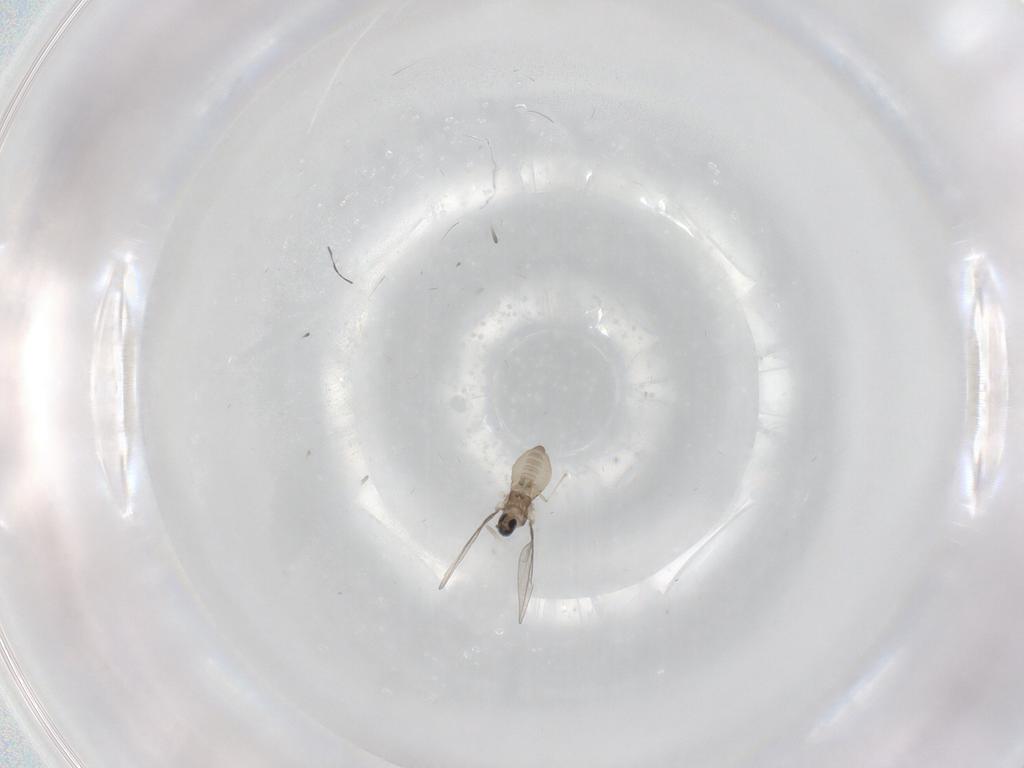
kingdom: Animalia
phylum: Arthropoda
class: Insecta
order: Diptera
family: Cecidomyiidae
